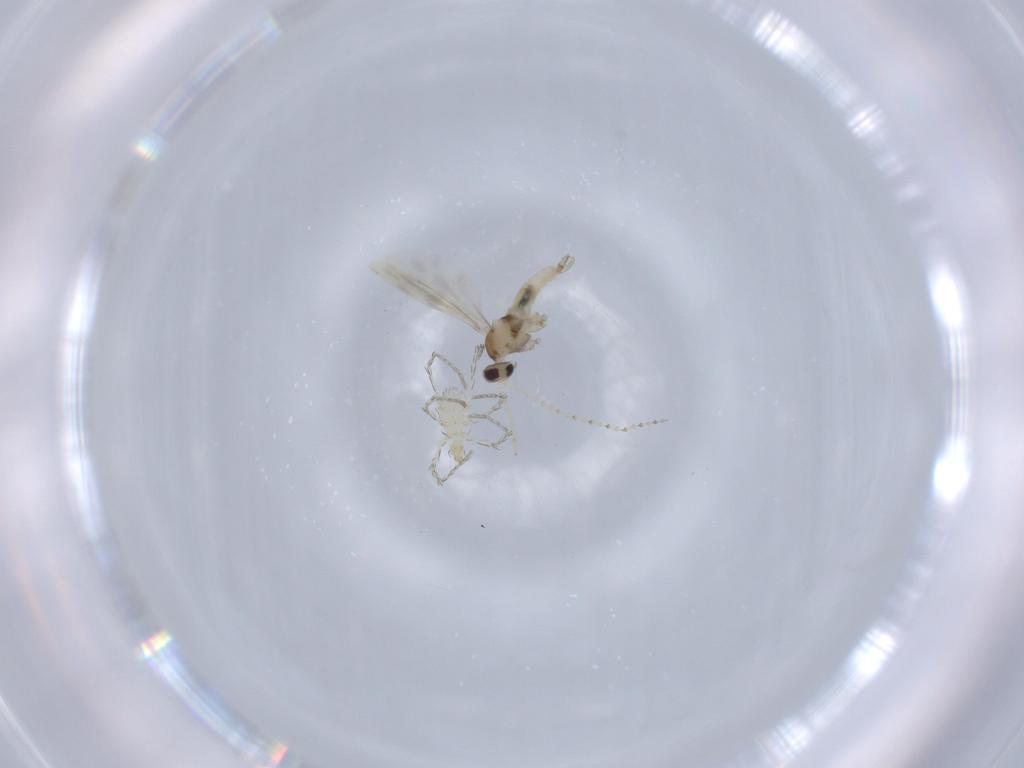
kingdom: Animalia
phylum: Arthropoda
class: Insecta
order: Diptera
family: Cecidomyiidae
